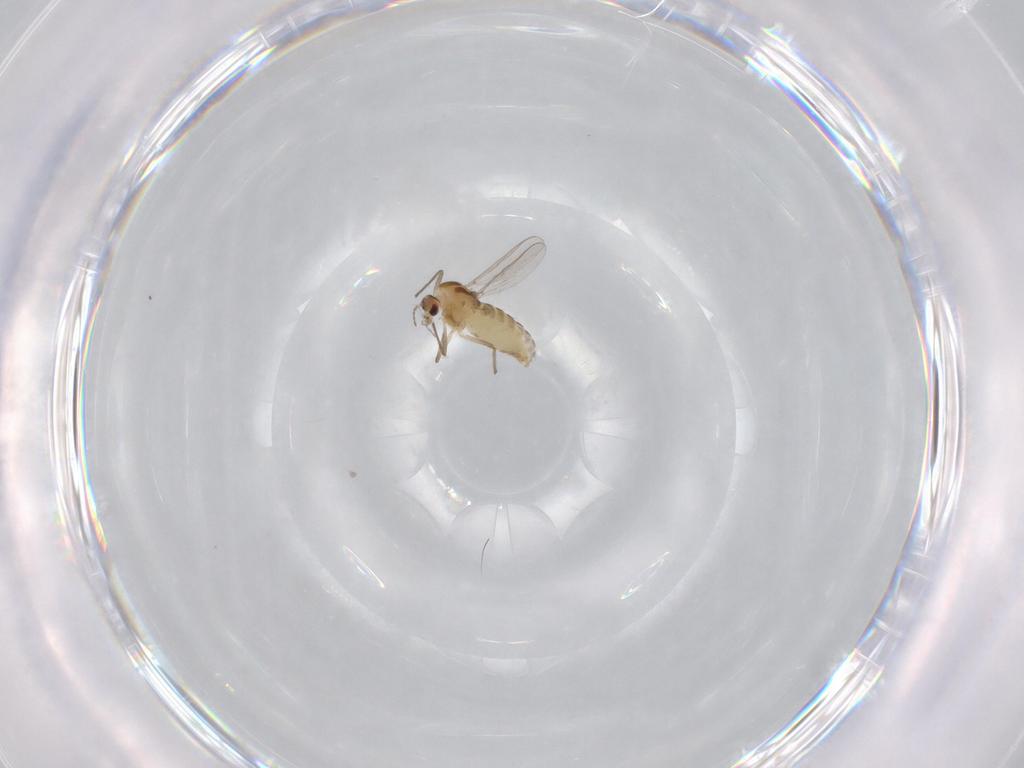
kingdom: Animalia
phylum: Arthropoda
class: Insecta
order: Diptera
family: Chironomidae
